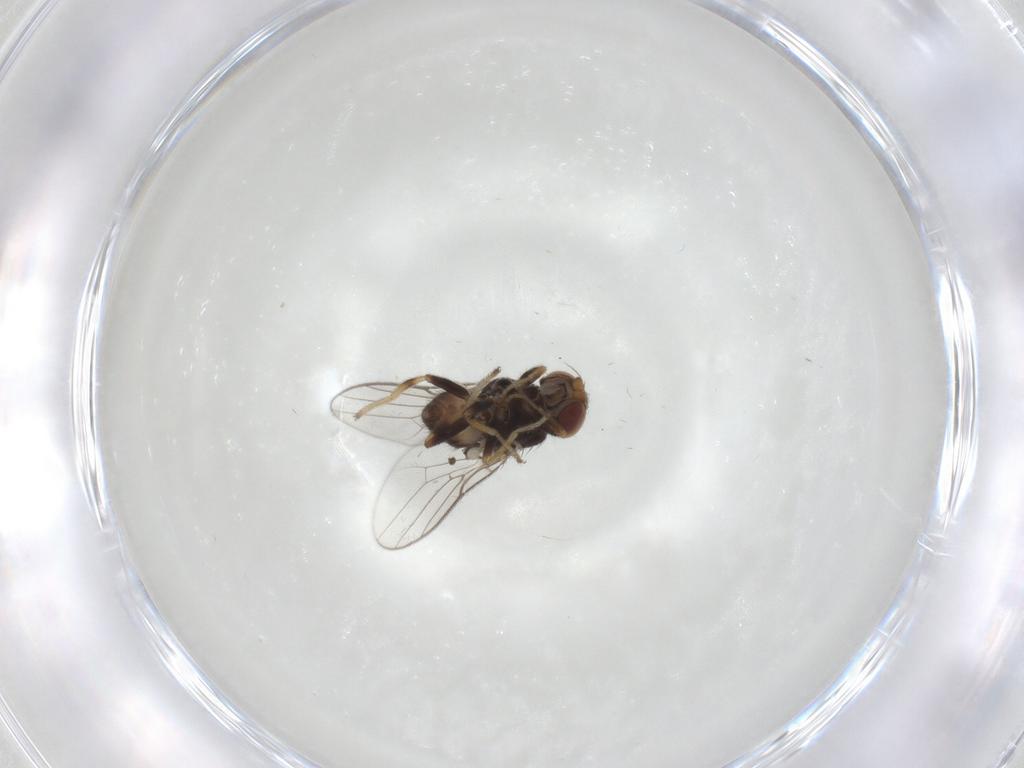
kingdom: Animalia
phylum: Arthropoda
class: Insecta
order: Diptera
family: Chloropidae
